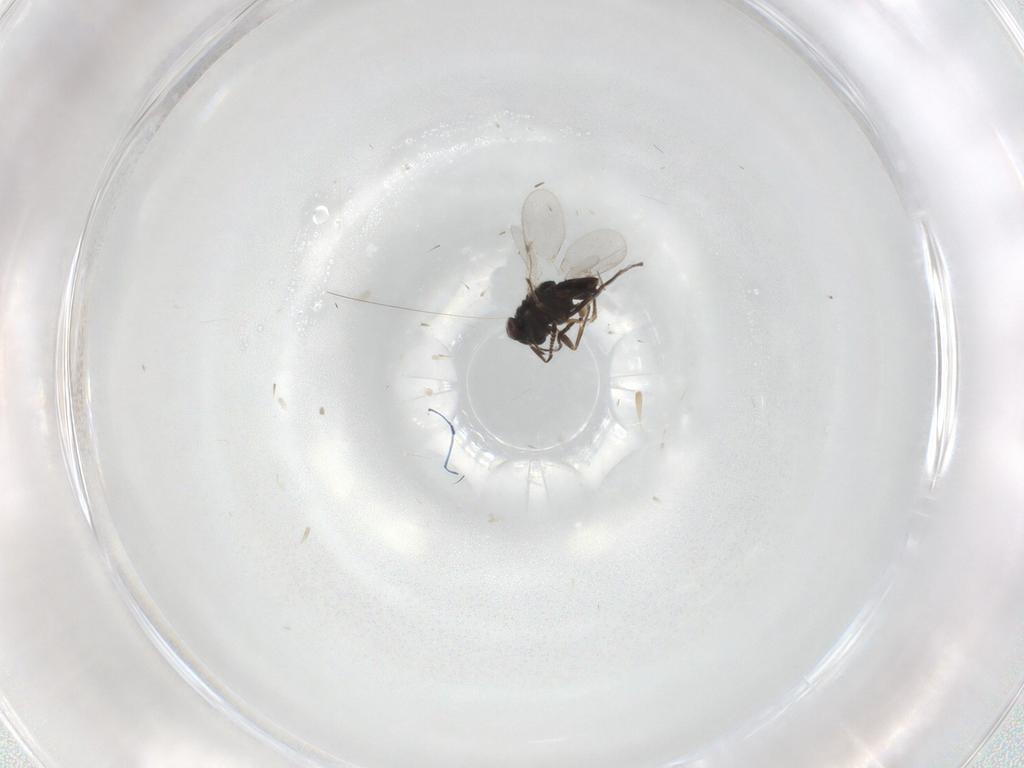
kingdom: Animalia
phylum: Arthropoda
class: Insecta
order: Hymenoptera
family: Encyrtidae
